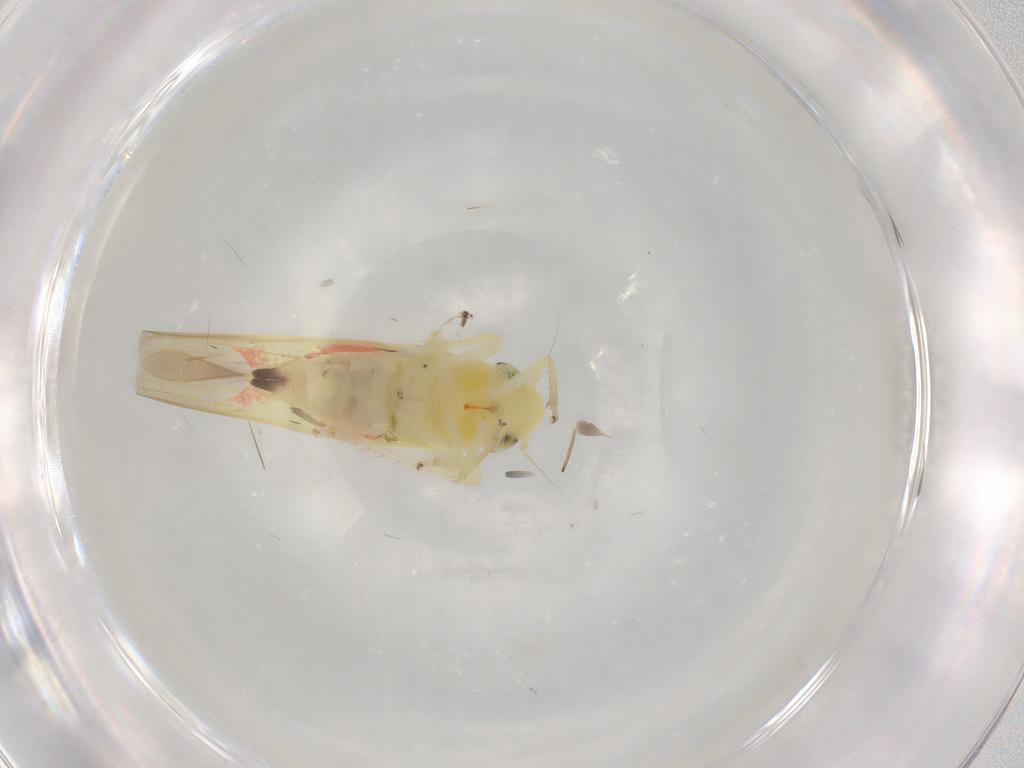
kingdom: Animalia
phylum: Arthropoda
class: Insecta
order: Hemiptera
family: Cicadellidae
